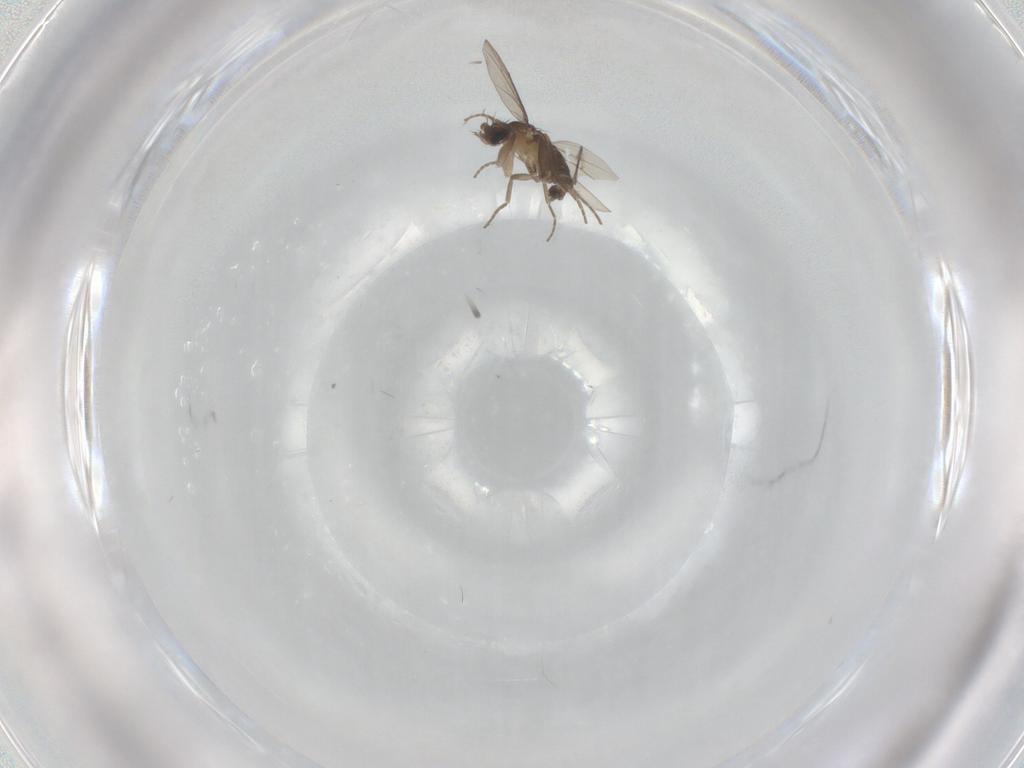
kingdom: Animalia
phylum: Arthropoda
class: Insecta
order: Diptera
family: Phoridae
